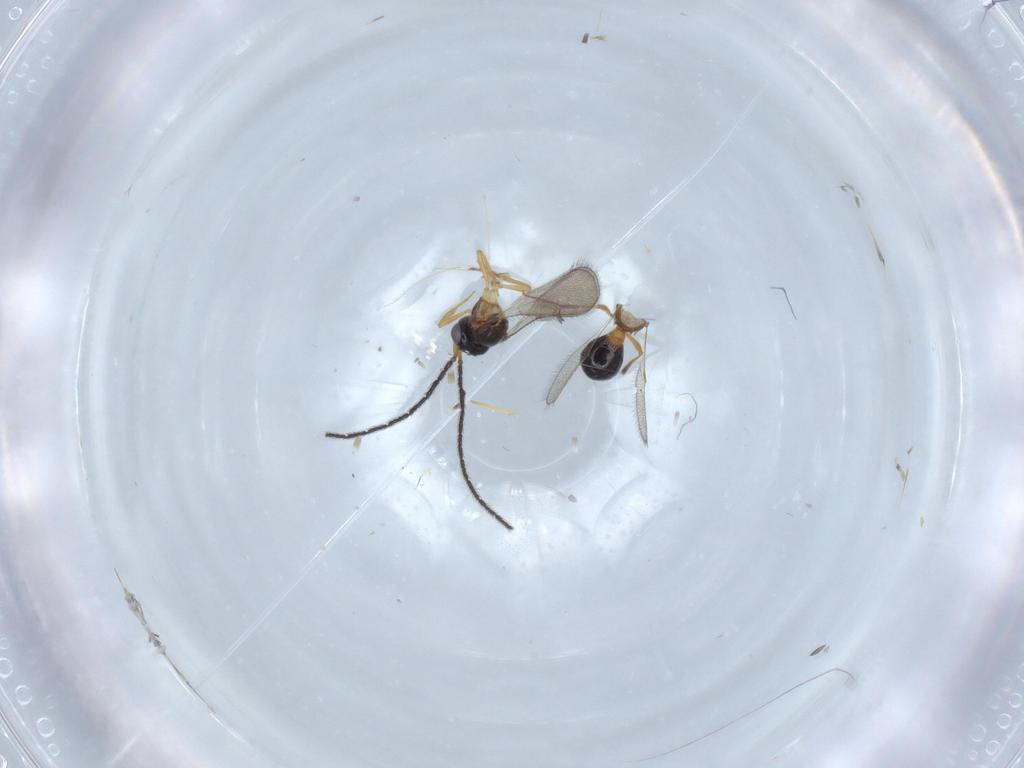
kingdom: Animalia
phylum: Arthropoda
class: Insecta
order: Hymenoptera
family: Scelionidae
